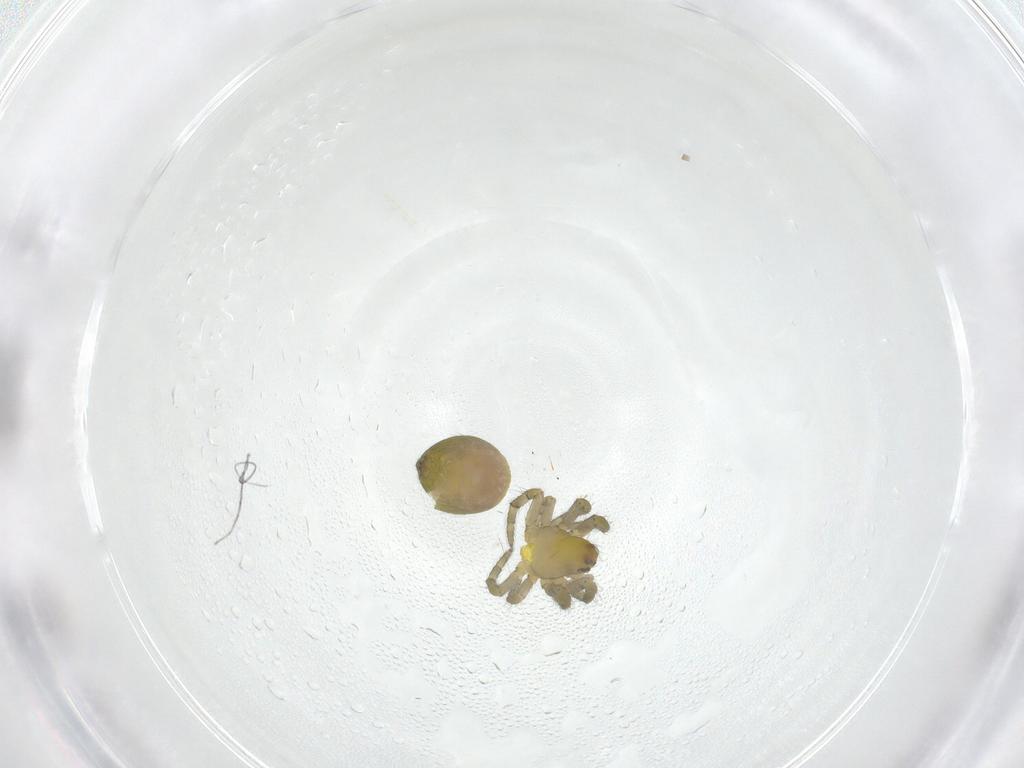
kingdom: Animalia
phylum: Arthropoda
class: Arachnida
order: Araneae
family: Araneidae
